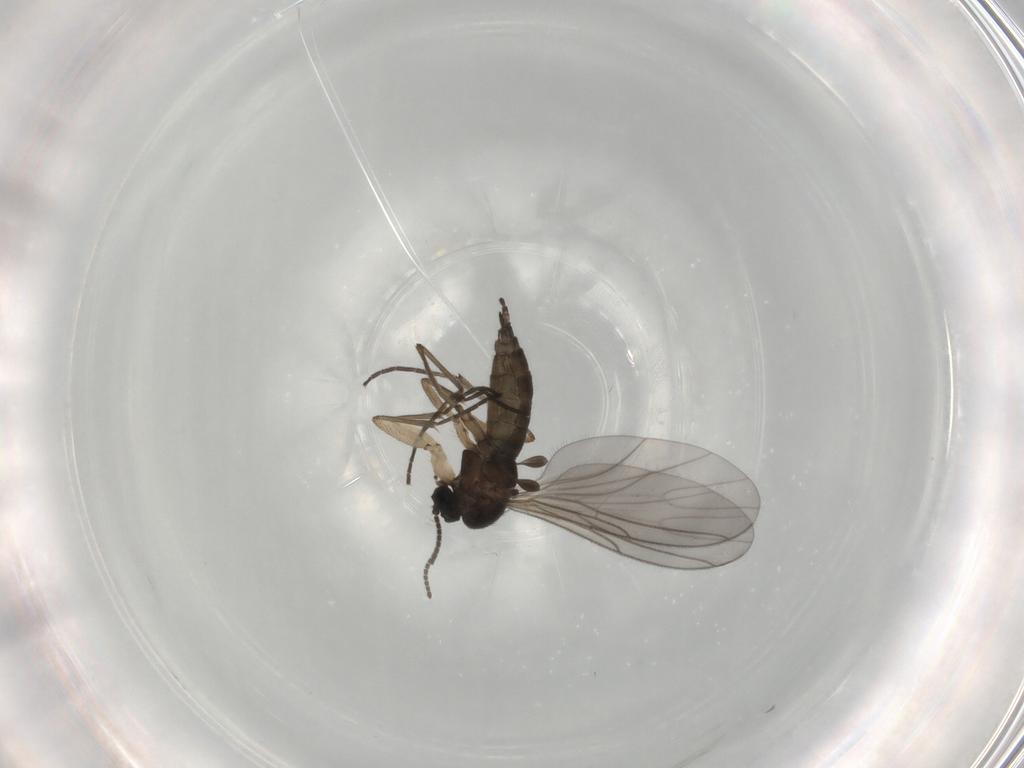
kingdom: Animalia
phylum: Arthropoda
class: Insecta
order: Diptera
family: Sciaridae
